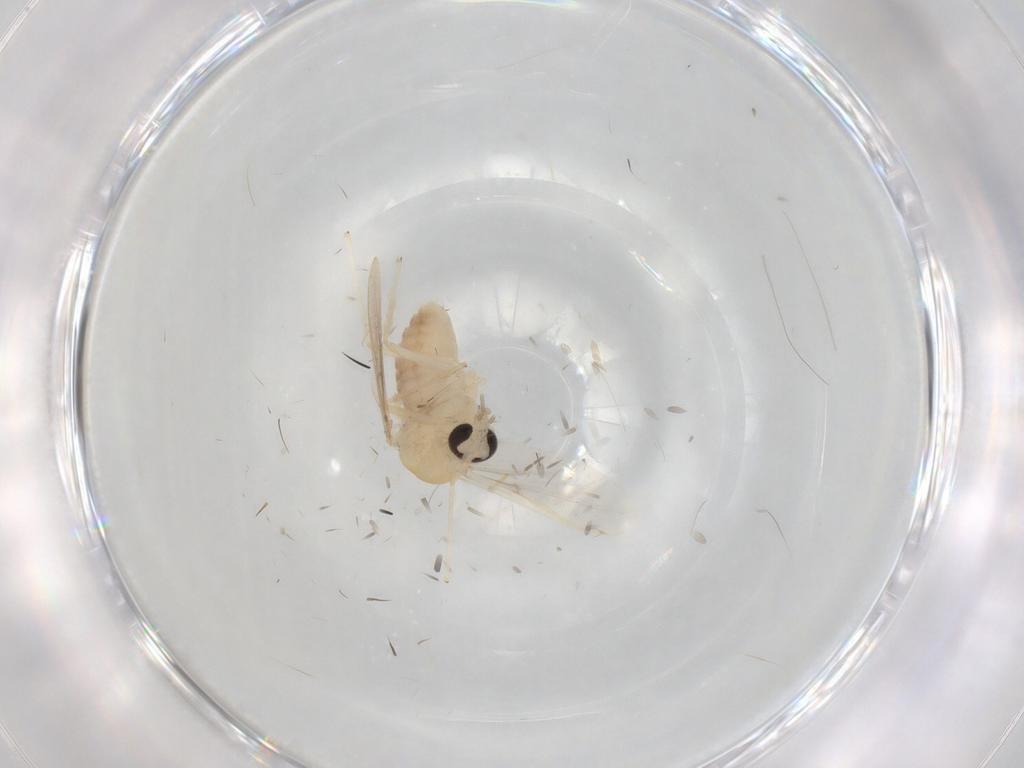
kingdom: Animalia
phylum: Arthropoda
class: Insecta
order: Diptera
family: Chironomidae
